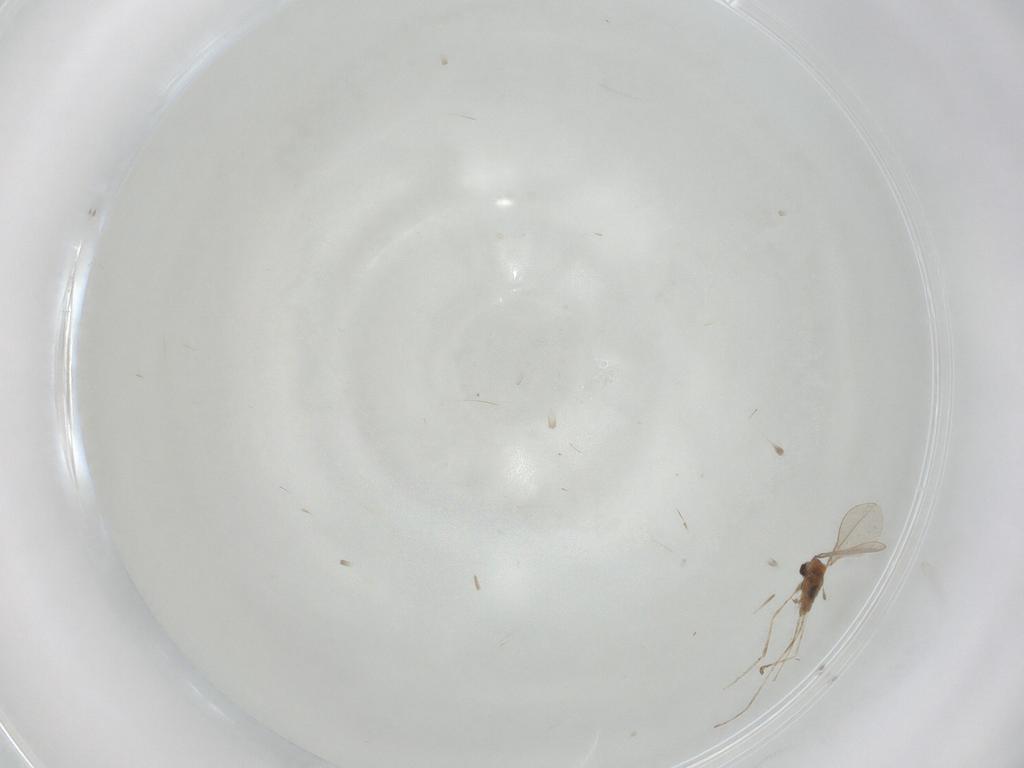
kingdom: Animalia
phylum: Arthropoda
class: Insecta
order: Diptera
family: Cecidomyiidae
